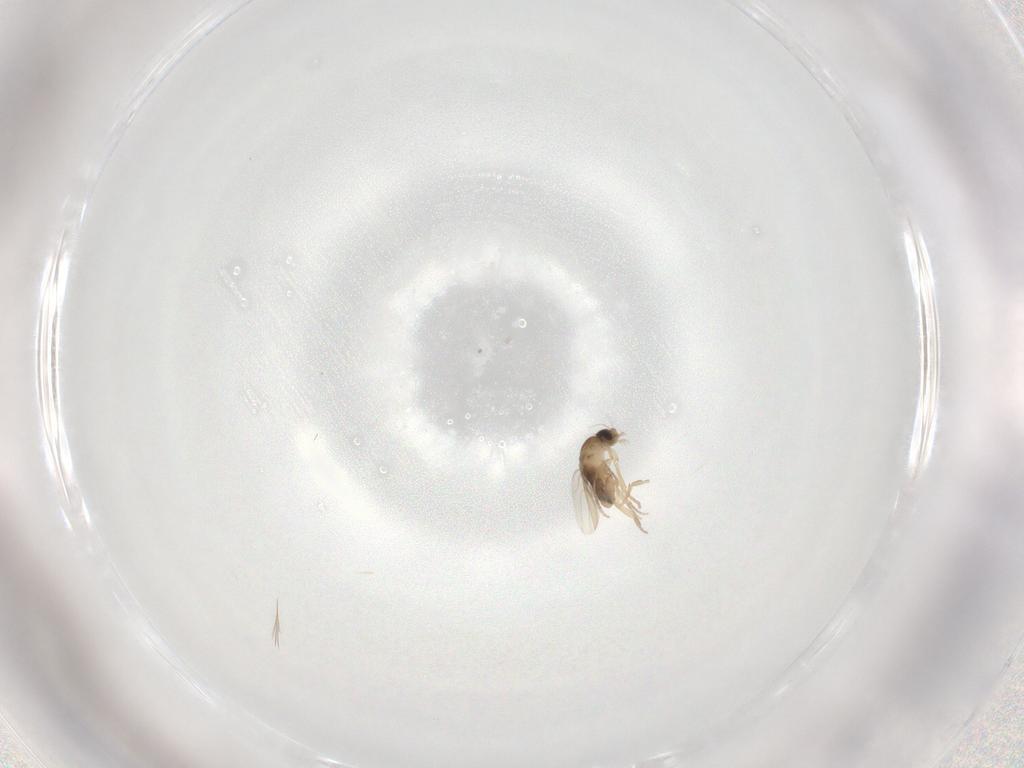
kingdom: Animalia
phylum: Arthropoda
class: Insecta
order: Diptera
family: Phoridae
